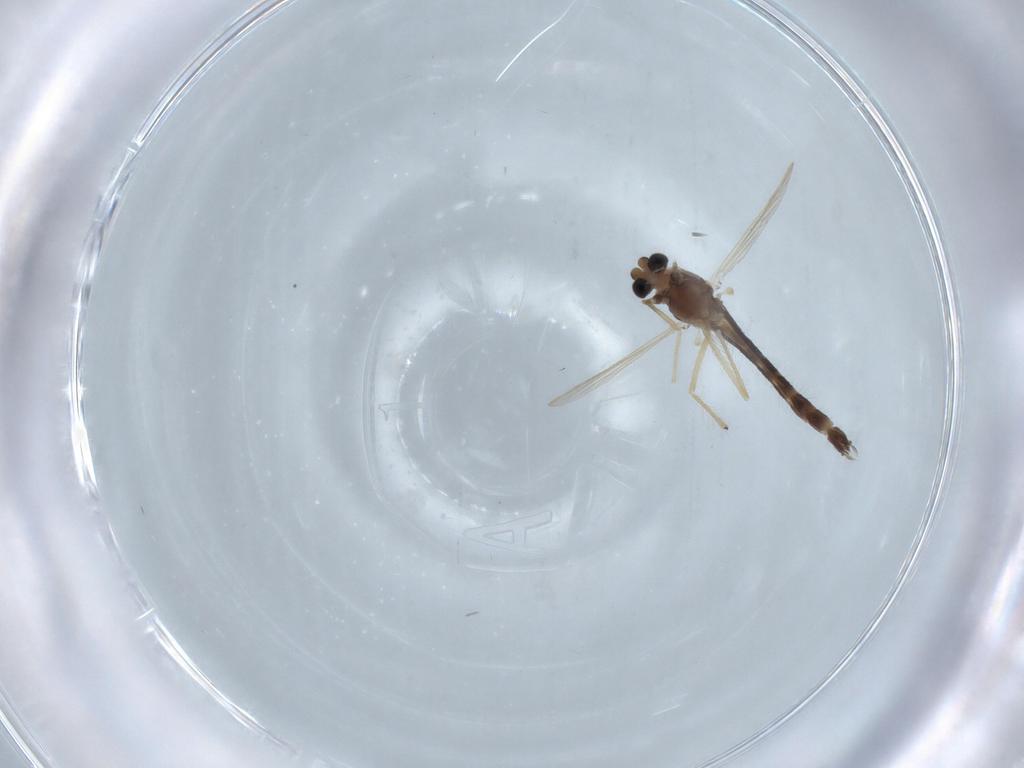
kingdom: Animalia
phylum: Arthropoda
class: Insecta
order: Diptera
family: Chironomidae
